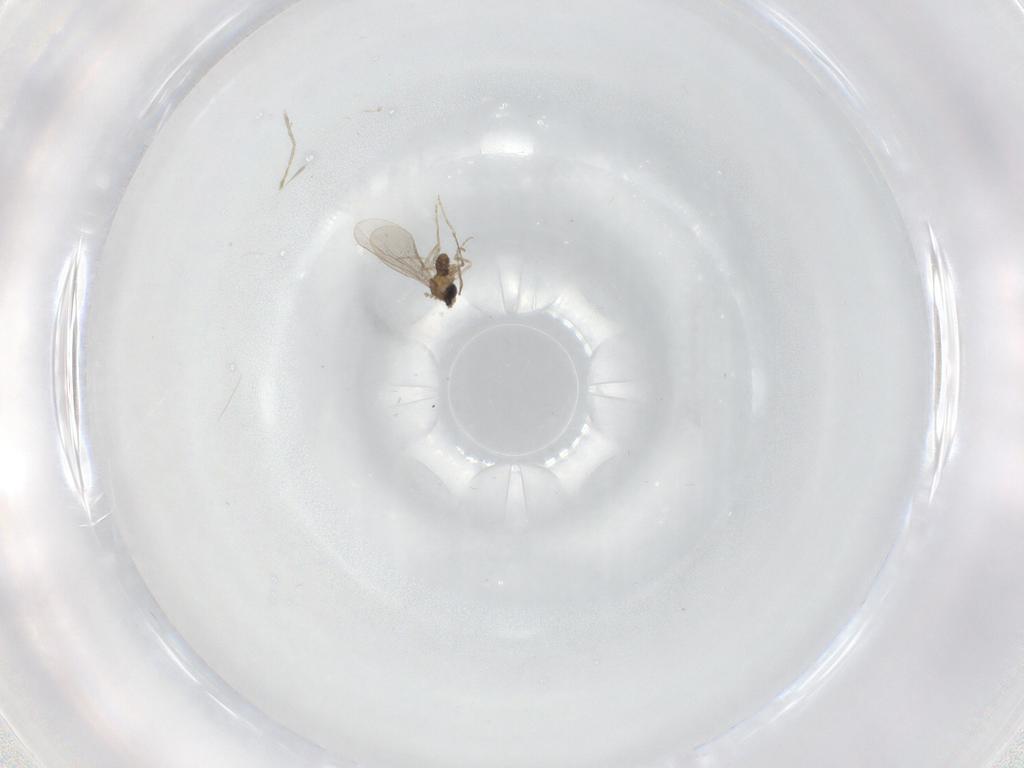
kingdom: Animalia
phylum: Arthropoda
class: Insecta
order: Diptera
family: Cecidomyiidae
